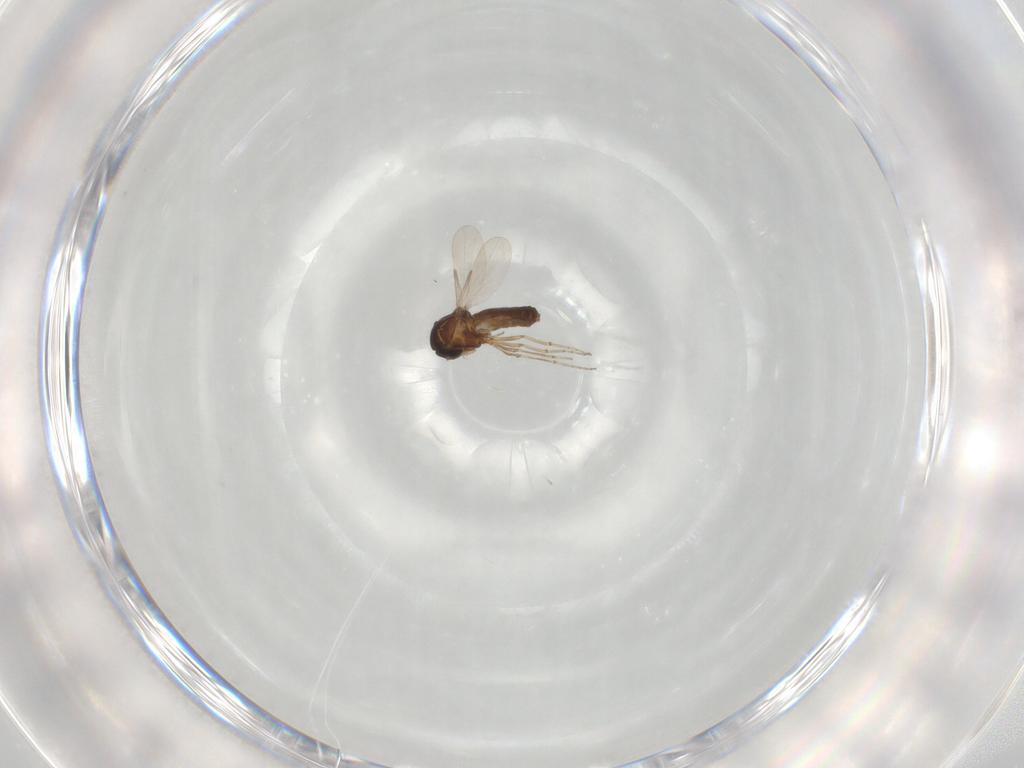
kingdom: Animalia
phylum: Arthropoda
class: Insecta
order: Diptera
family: Ceratopogonidae
